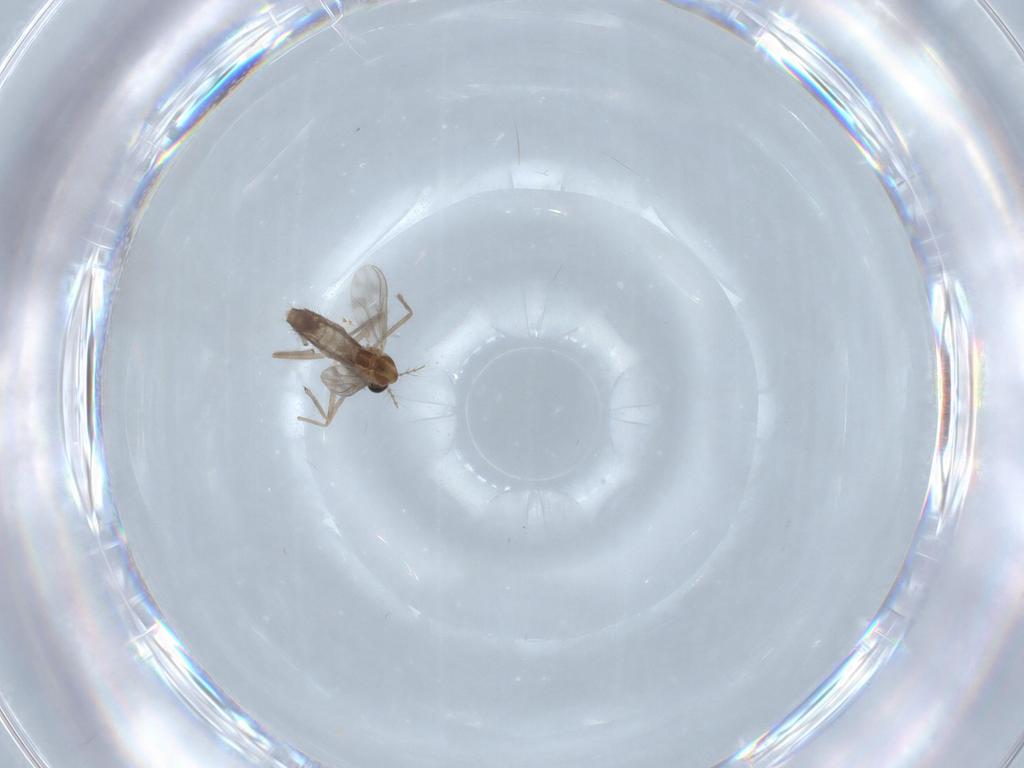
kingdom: Animalia
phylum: Arthropoda
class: Insecta
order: Diptera
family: Chironomidae
